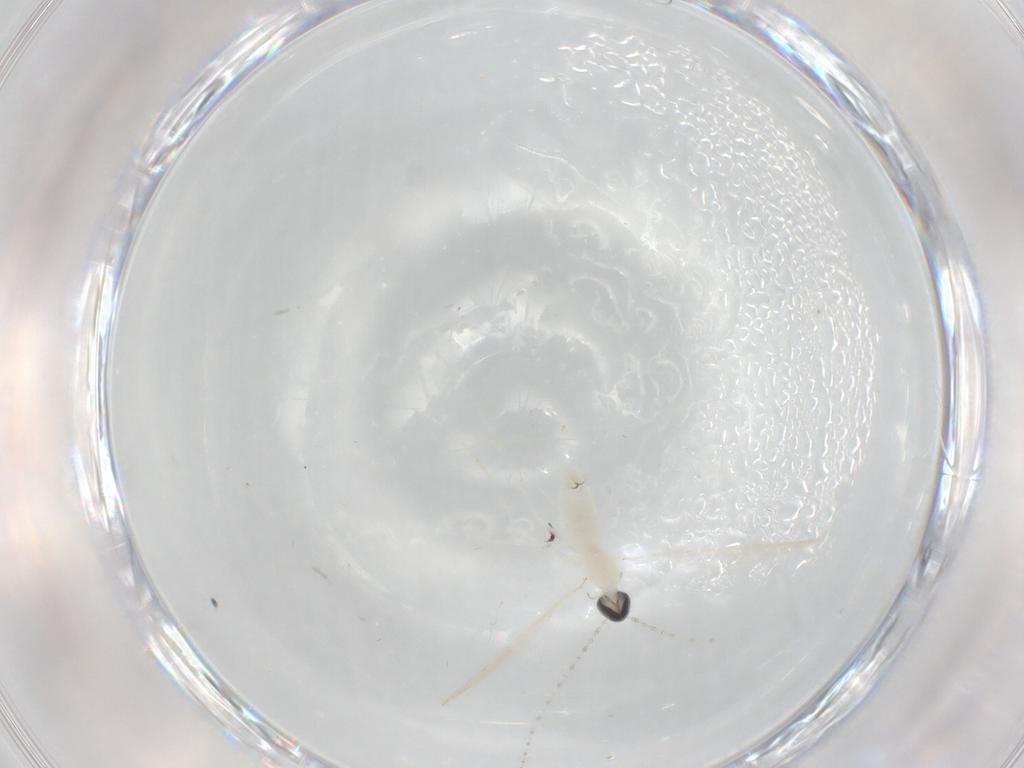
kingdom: Animalia
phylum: Arthropoda
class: Insecta
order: Diptera
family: Cecidomyiidae
